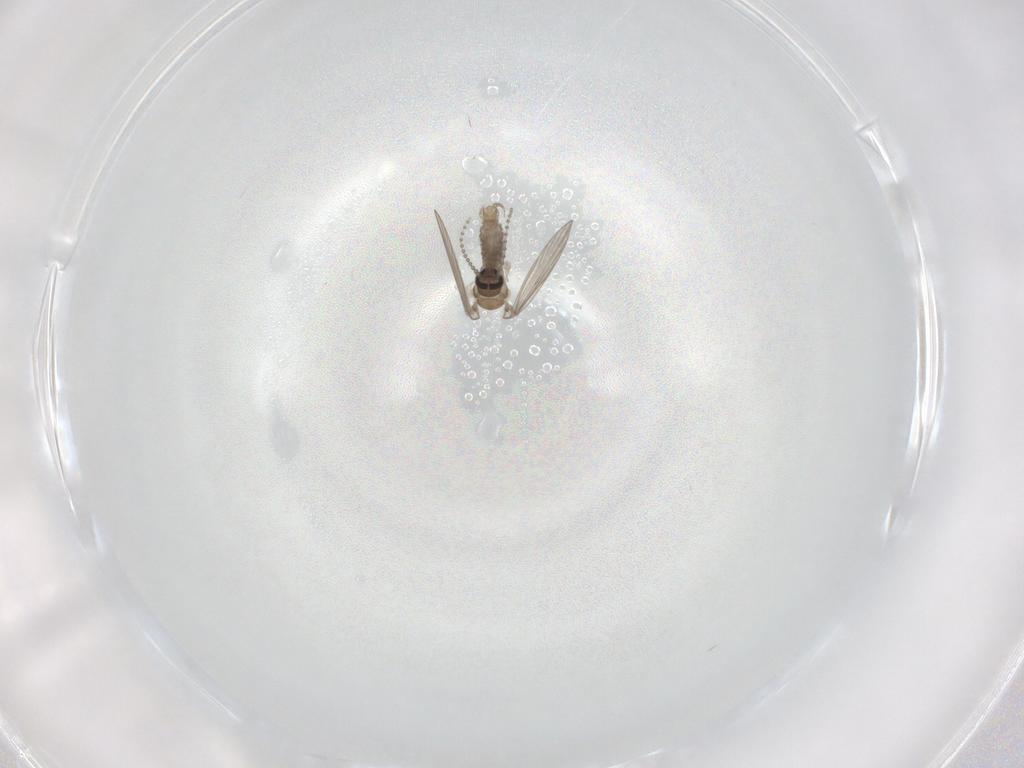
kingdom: Animalia
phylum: Arthropoda
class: Insecta
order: Diptera
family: Psychodidae
